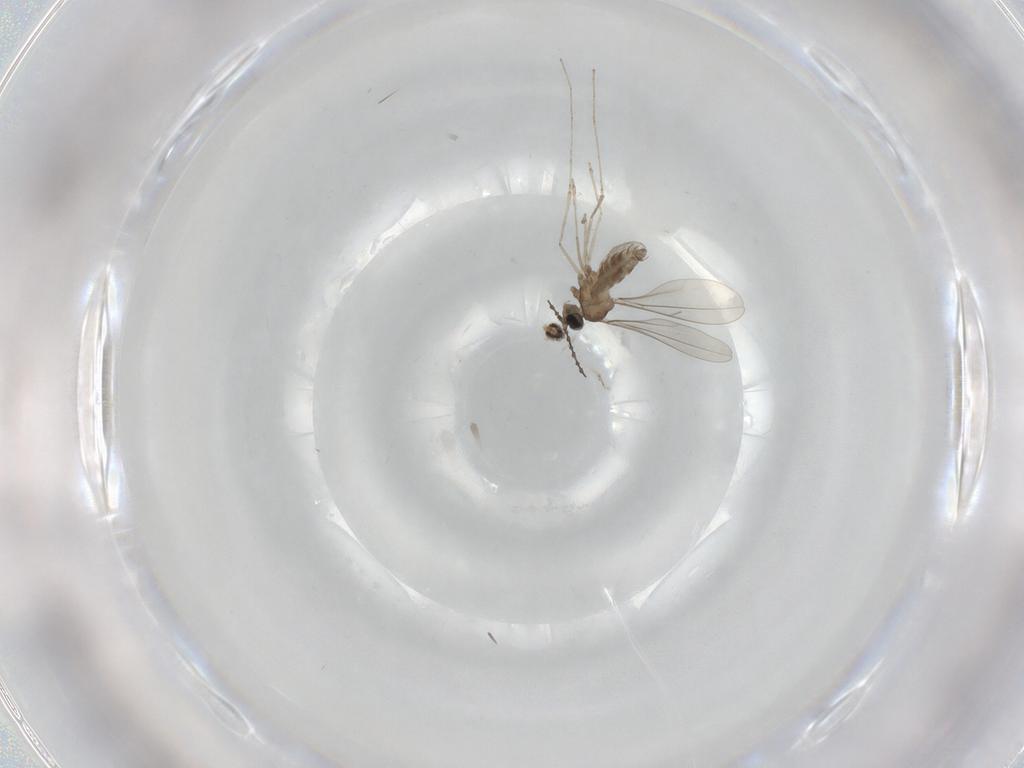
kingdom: Animalia
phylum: Arthropoda
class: Insecta
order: Diptera
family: Cecidomyiidae
